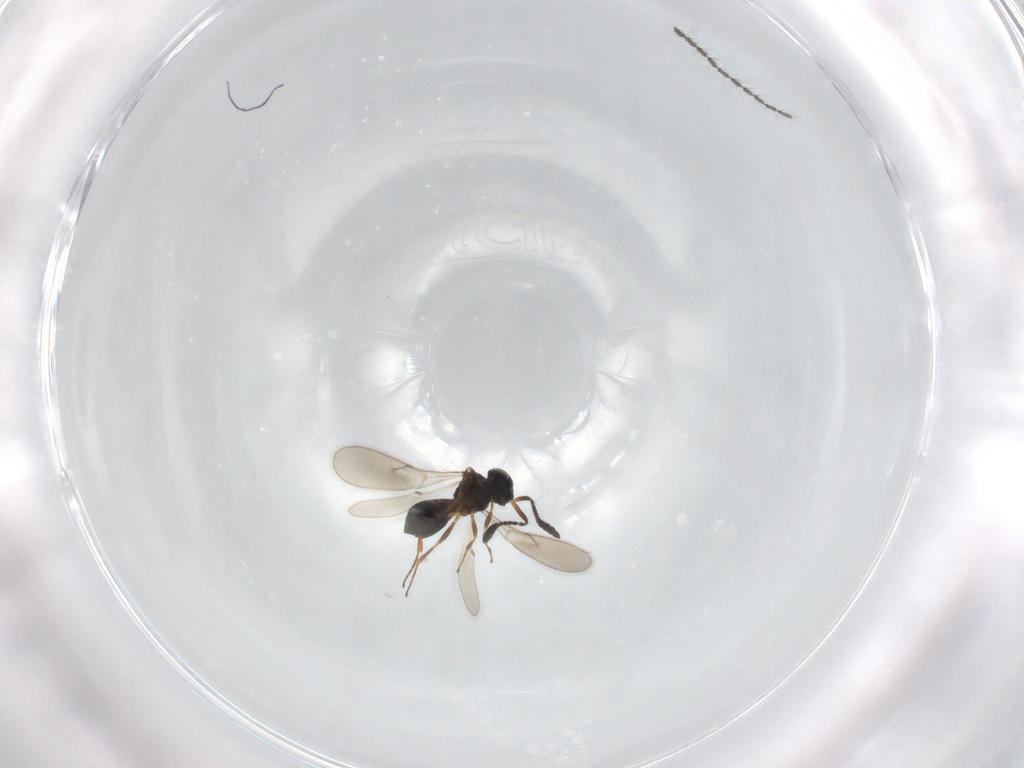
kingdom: Animalia
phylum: Arthropoda
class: Insecta
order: Hymenoptera
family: Scelionidae
